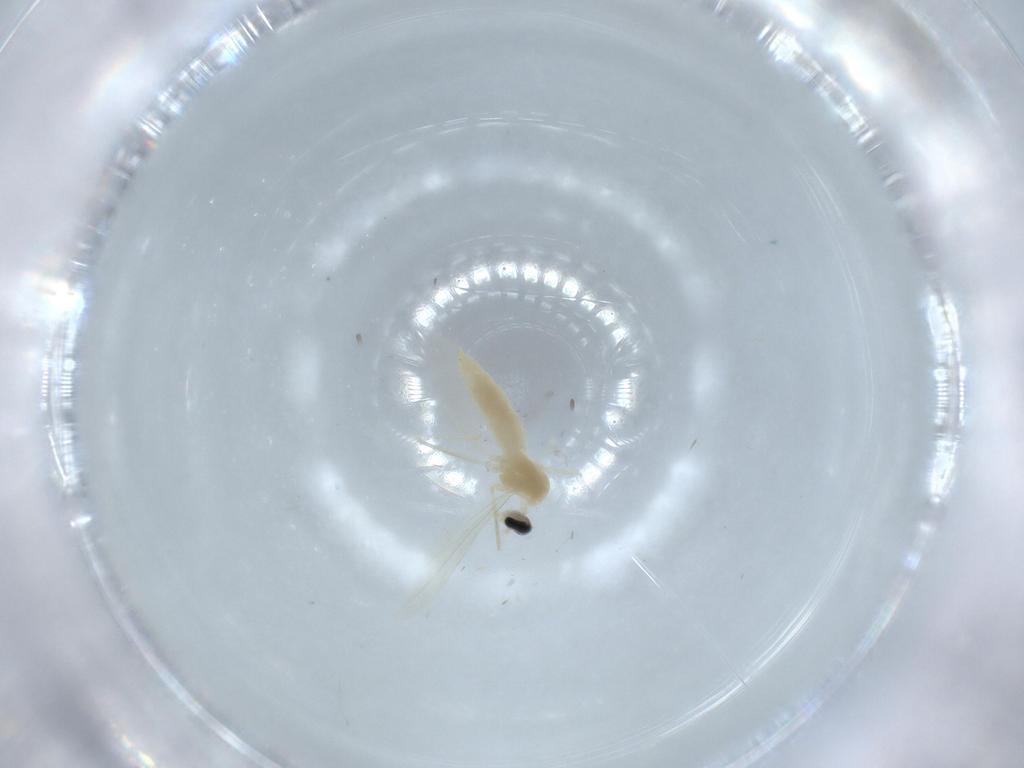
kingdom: Animalia
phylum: Arthropoda
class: Insecta
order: Diptera
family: Cecidomyiidae
